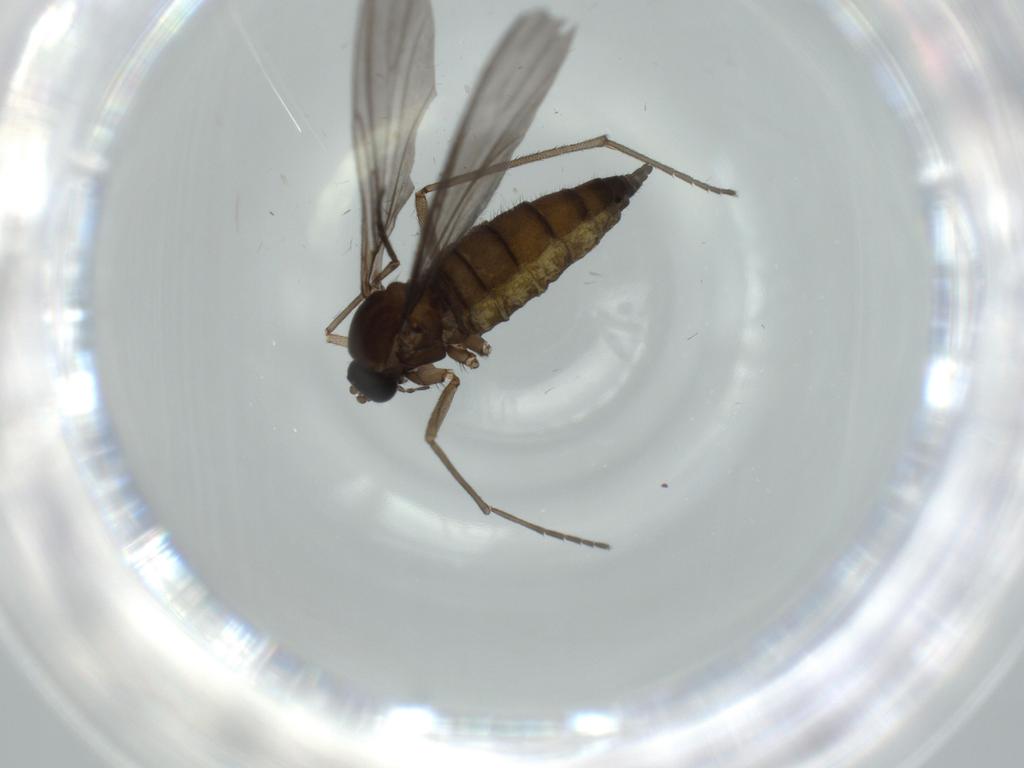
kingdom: Animalia
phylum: Arthropoda
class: Insecta
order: Diptera
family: Sciaridae
